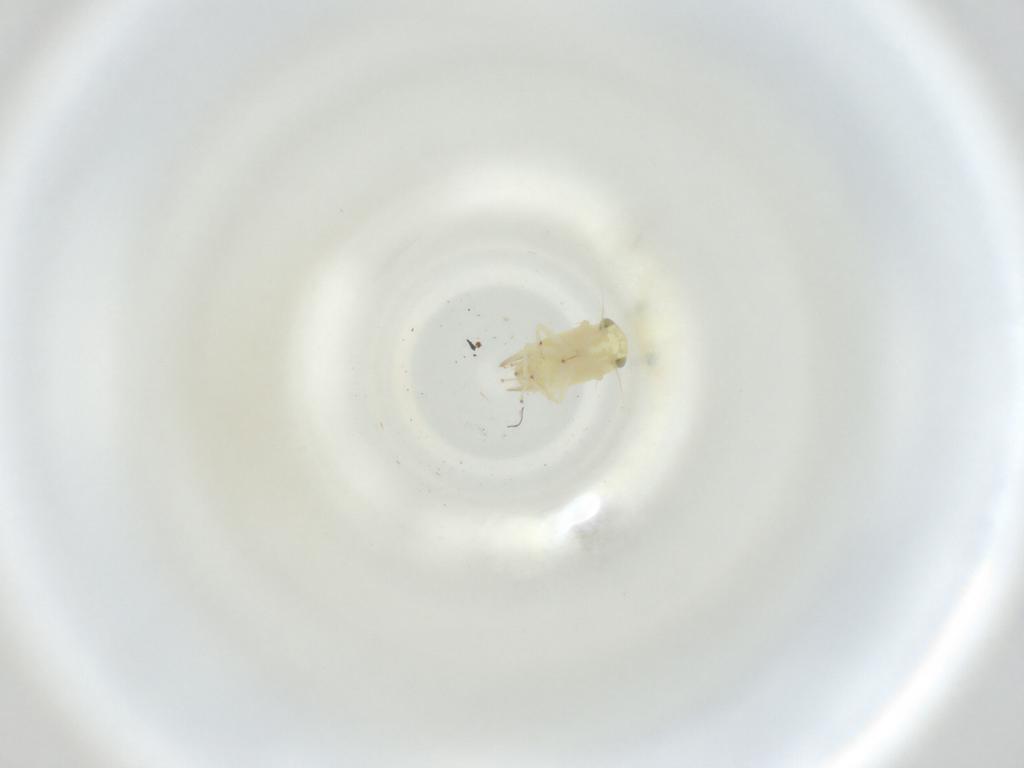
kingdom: Animalia
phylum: Arthropoda
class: Insecta
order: Hemiptera
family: Cicadellidae
